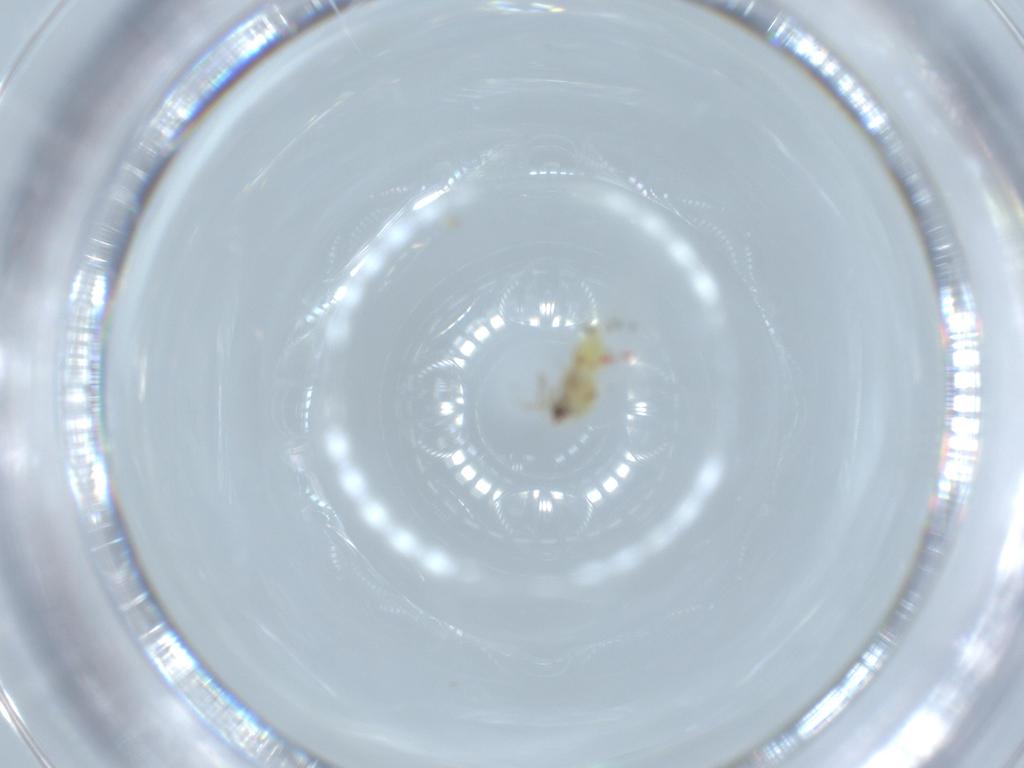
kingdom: Animalia
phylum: Arthropoda
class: Insecta
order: Hemiptera
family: Aleyrodidae
